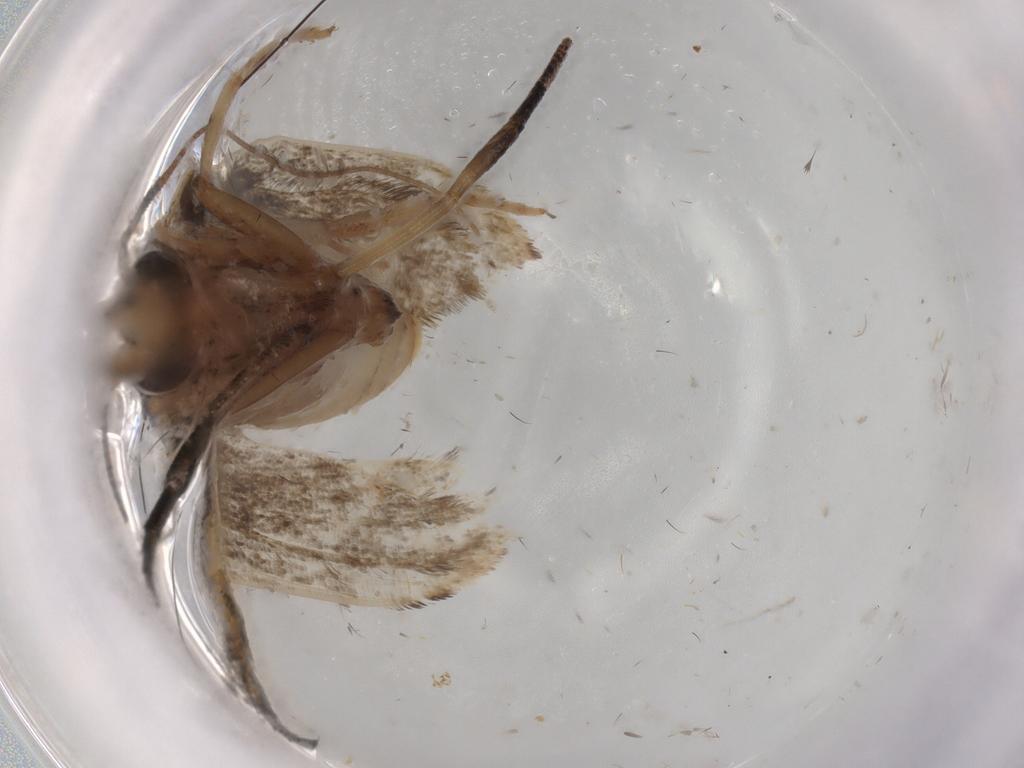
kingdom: Animalia
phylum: Arthropoda
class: Insecta
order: Lepidoptera
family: Yponomeutidae
